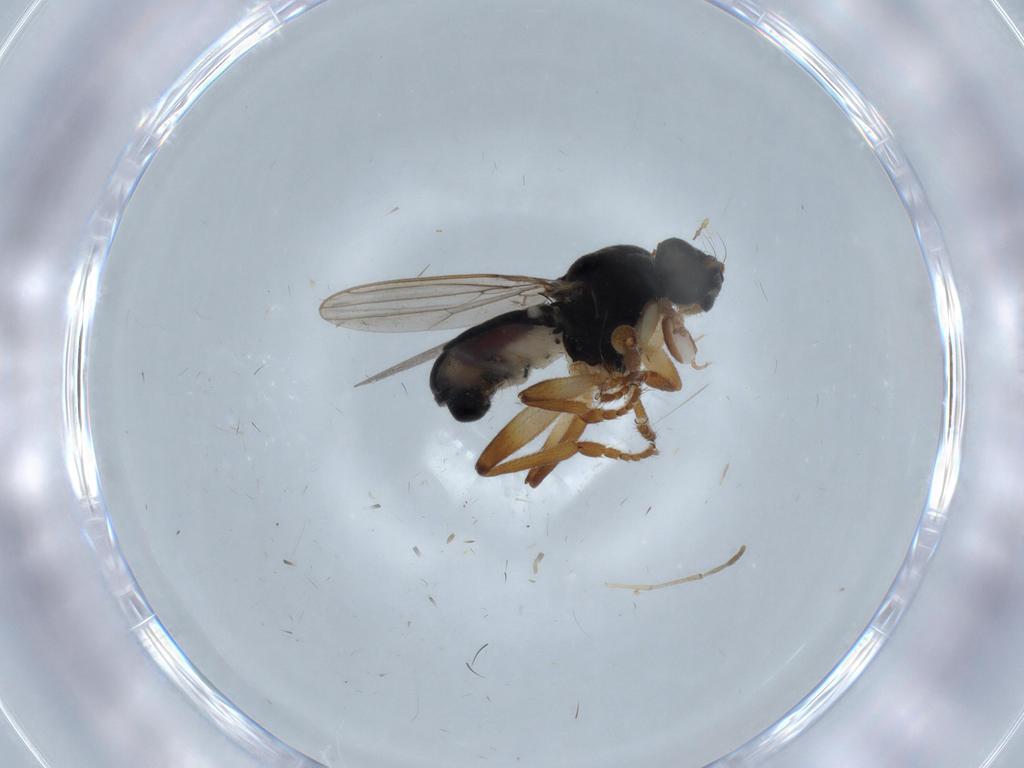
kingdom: Animalia
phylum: Arthropoda
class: Insecta
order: Diptera
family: Sphaeroceridae
